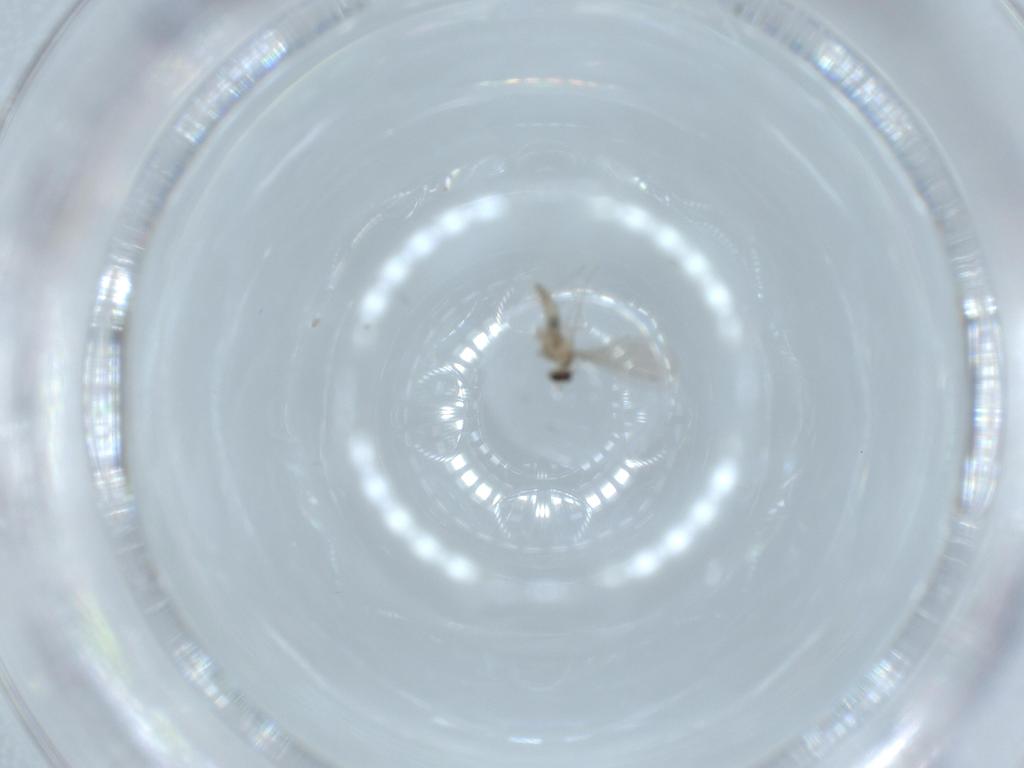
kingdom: Animalia
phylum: Arthropoda
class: Insecta
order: Diptera
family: Cecidomyiidae
